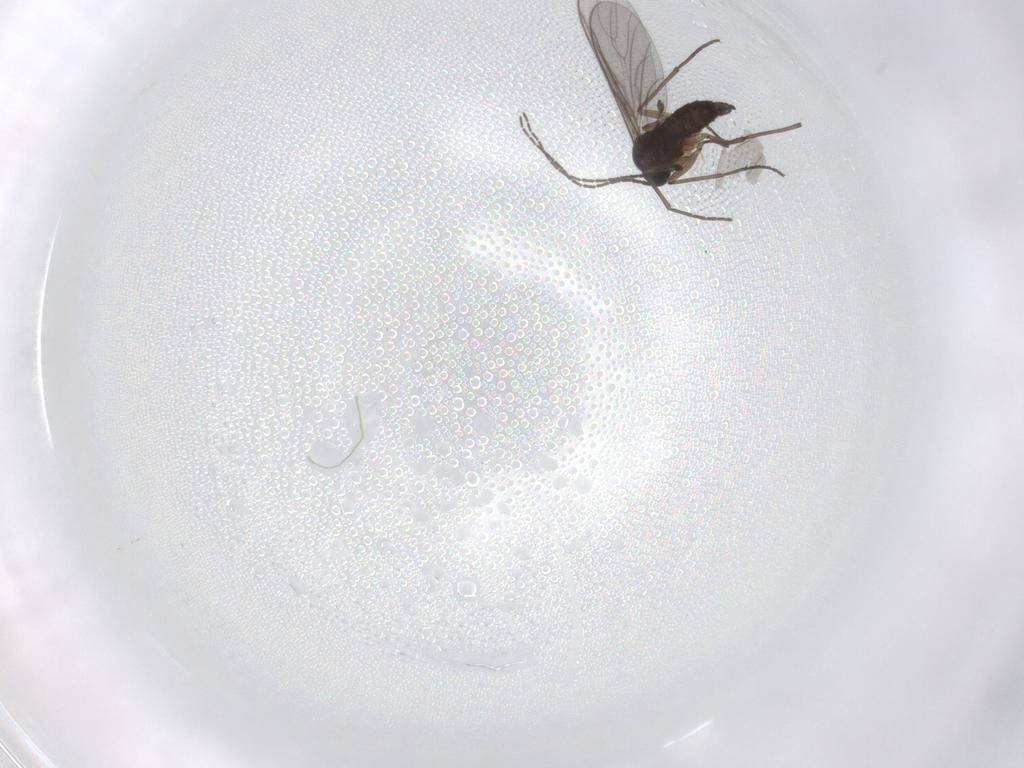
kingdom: Animalia
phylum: Arthropoda
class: Insecta
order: Diptera
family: Sciaridae
